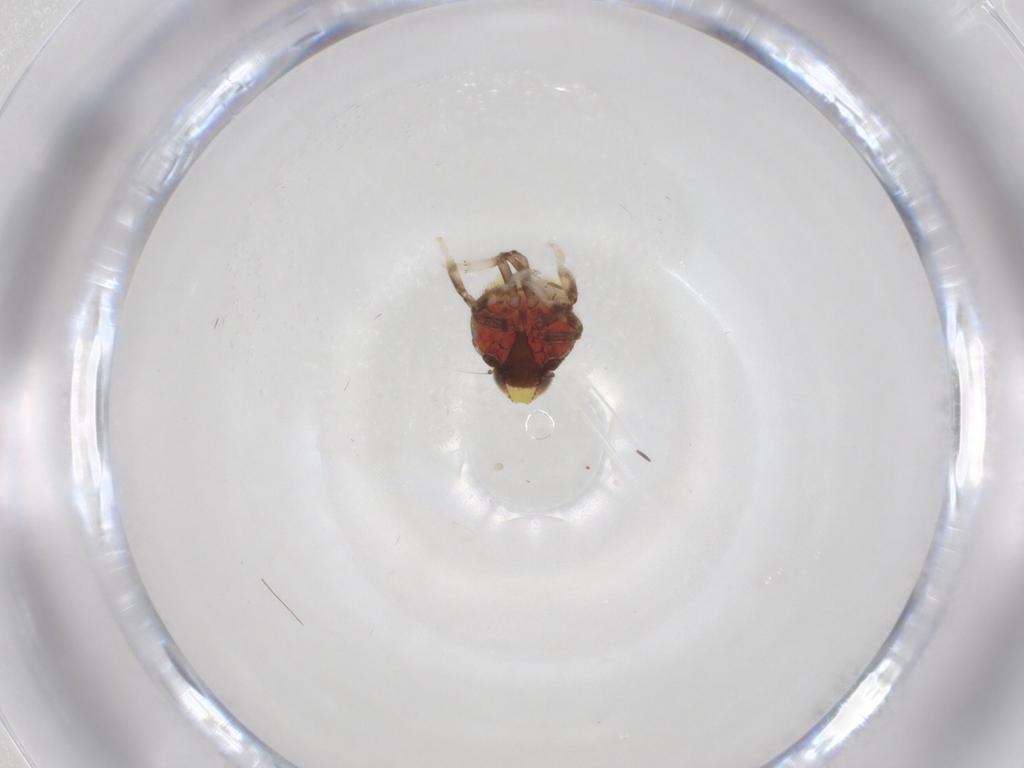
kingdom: Animalia
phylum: Arthropoda
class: Insecta
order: Hemiptera
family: Issidae
